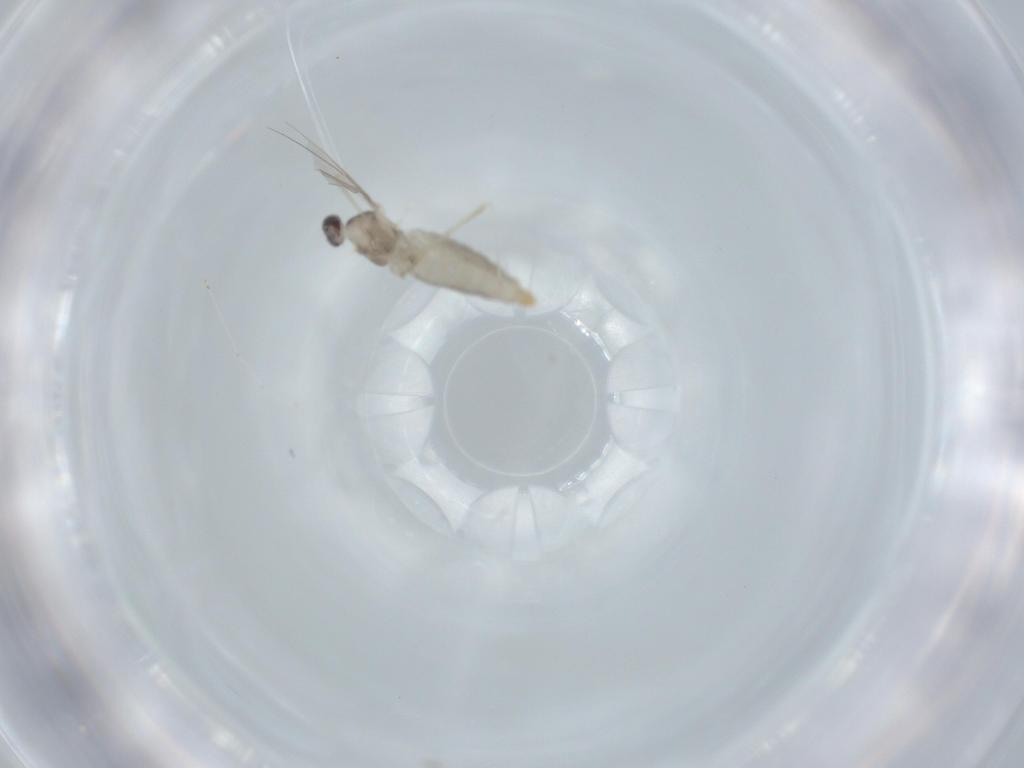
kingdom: Animalia
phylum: Arthropoda
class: Insecta
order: Diptera
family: Cecidomyiidae
